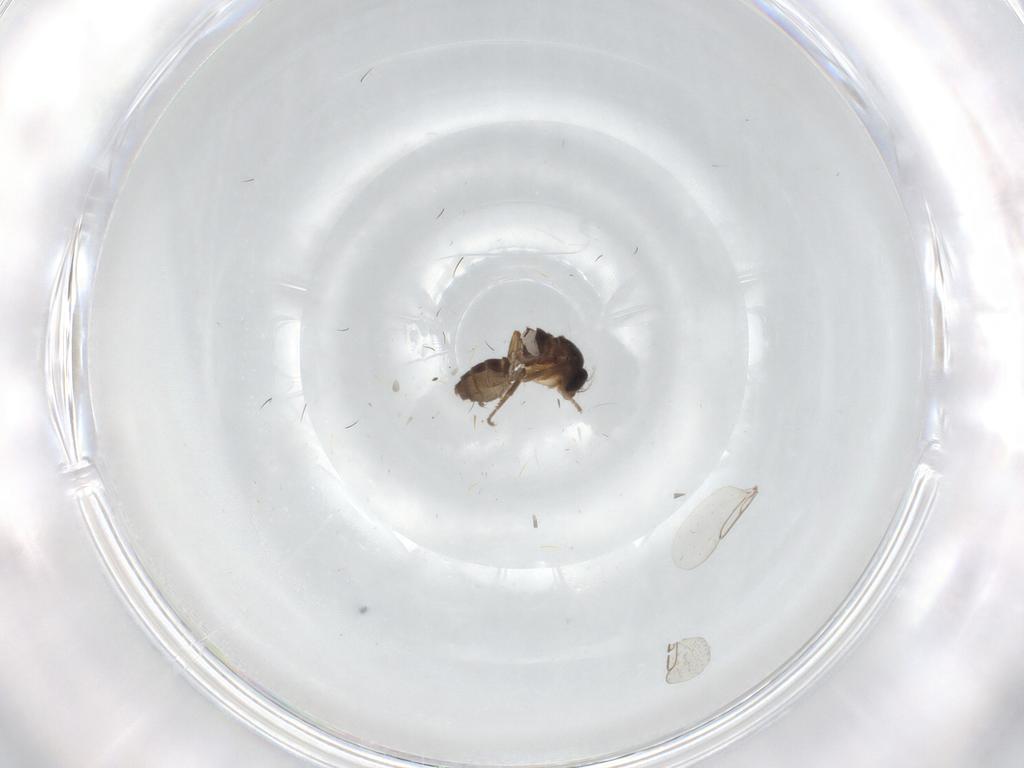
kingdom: Animalia
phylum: Arthropoda
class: Insecta
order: Diptera
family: Phoridae
